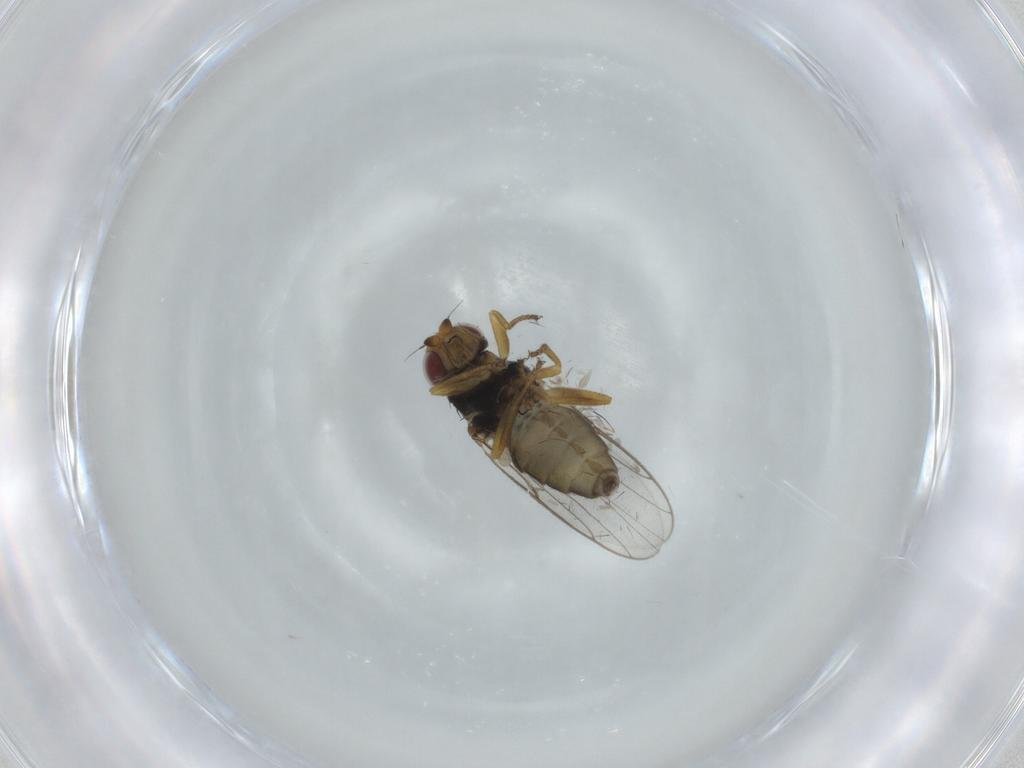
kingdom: Animalia
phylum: Arthropoda
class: Insecta
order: Diptera
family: Chloropidae
